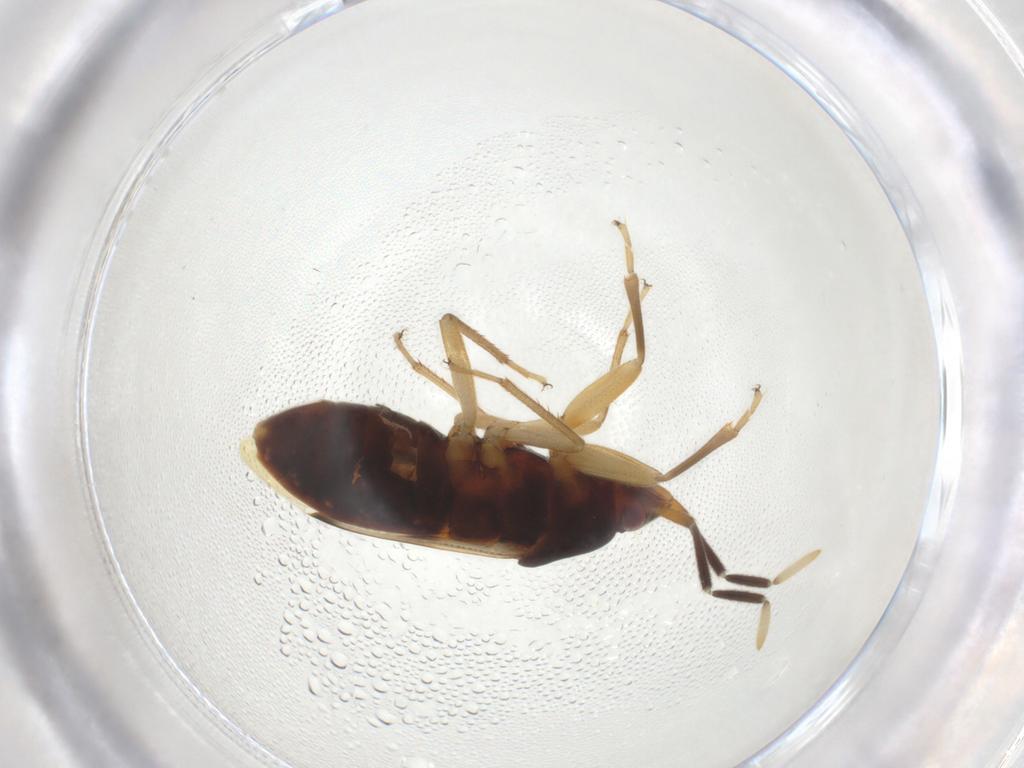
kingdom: Animalia
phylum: Arthropoda
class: Insecta
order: Hemiptera
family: Rhyparochromidae
